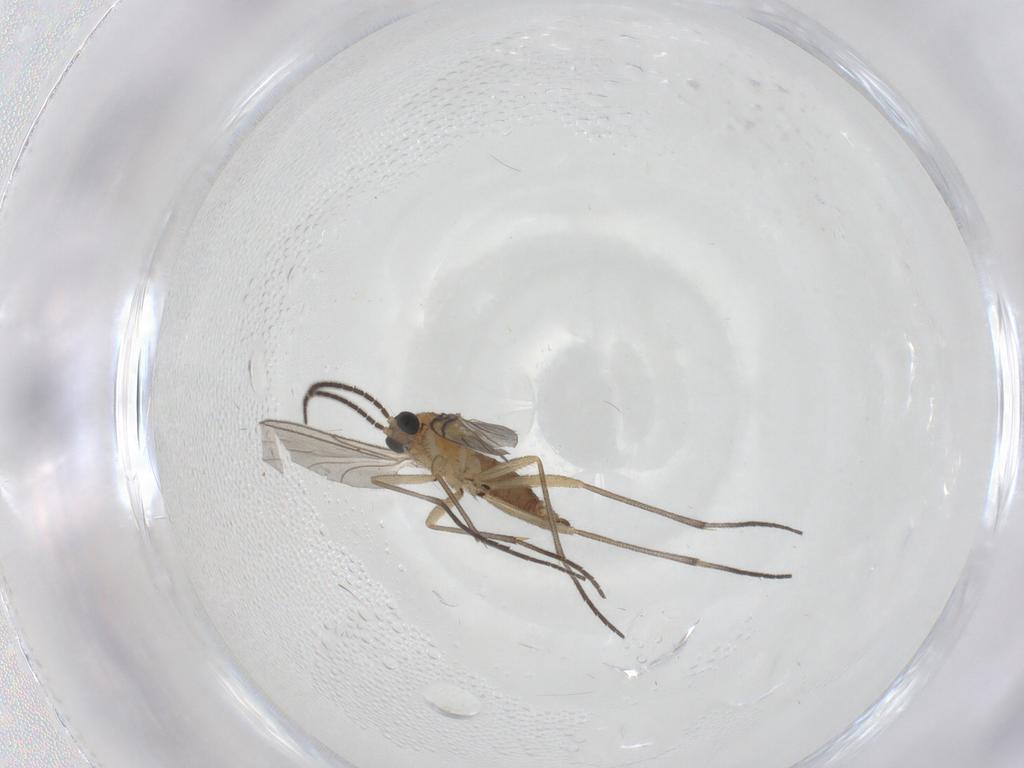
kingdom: Animalia
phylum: Arthropoda
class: Insecta
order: Diptera
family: Sciaridae
